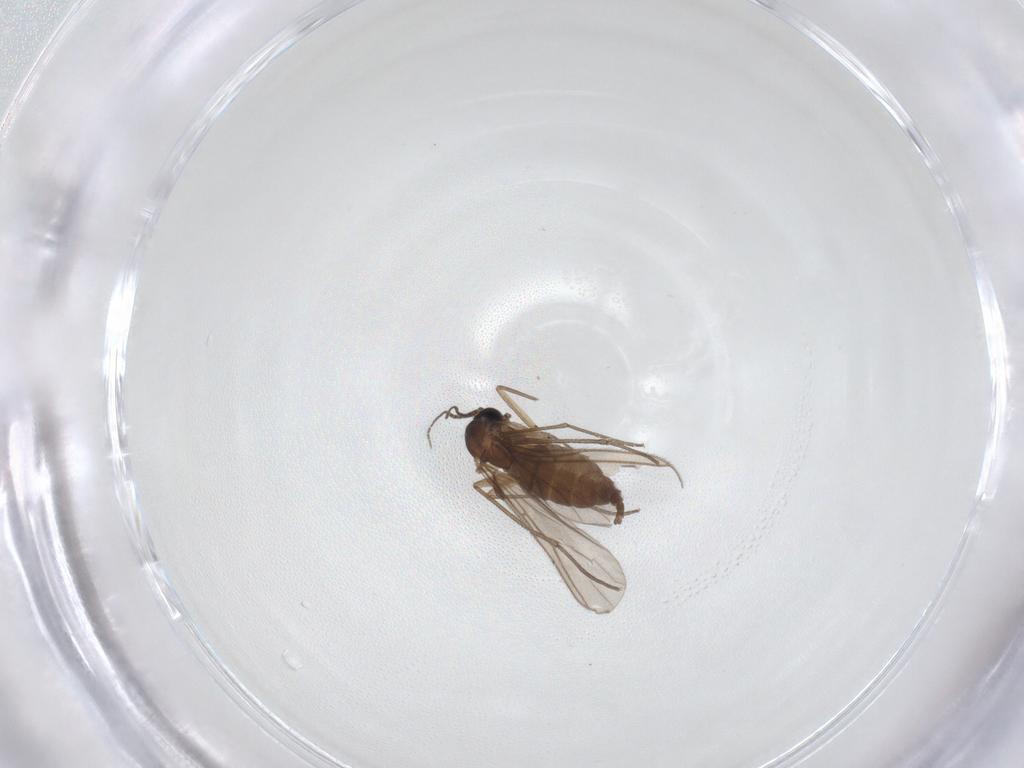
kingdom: Animalia
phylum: Arthropoda
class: Insecta
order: Diptera
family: Sciaridae
